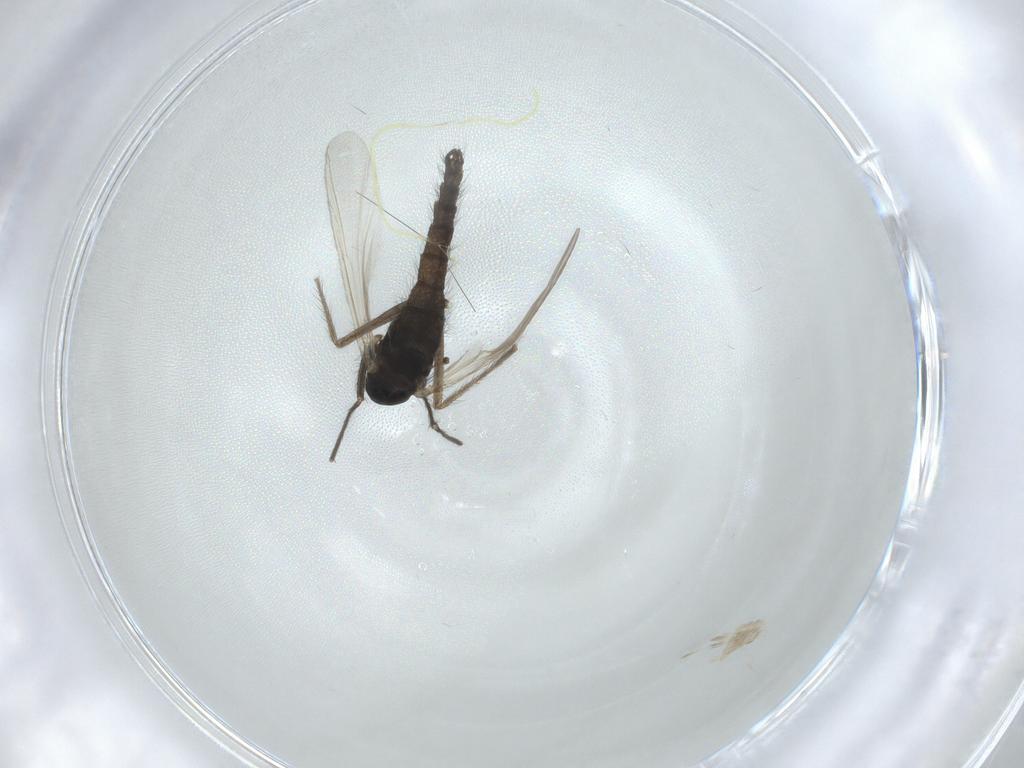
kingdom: Animalia
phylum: Arthropoda
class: Insecta
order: Diptera
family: Chironomidae
